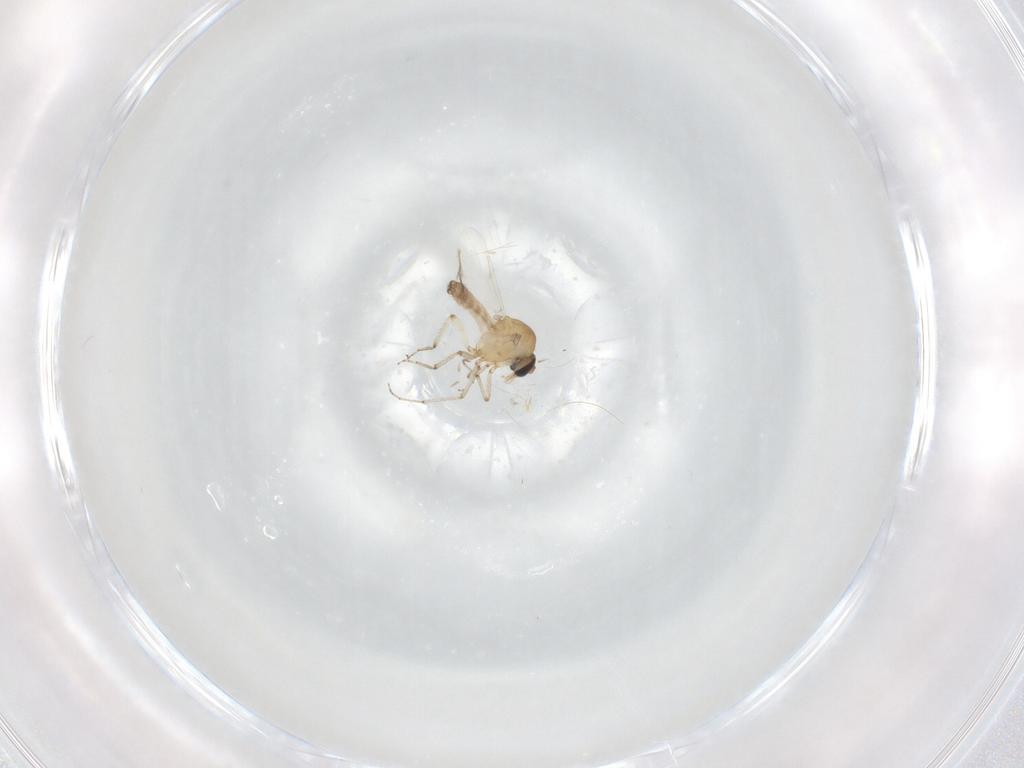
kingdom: Animalia
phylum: Arthropoda
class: Insecta
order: Diptera
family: Ceratopogonidae
